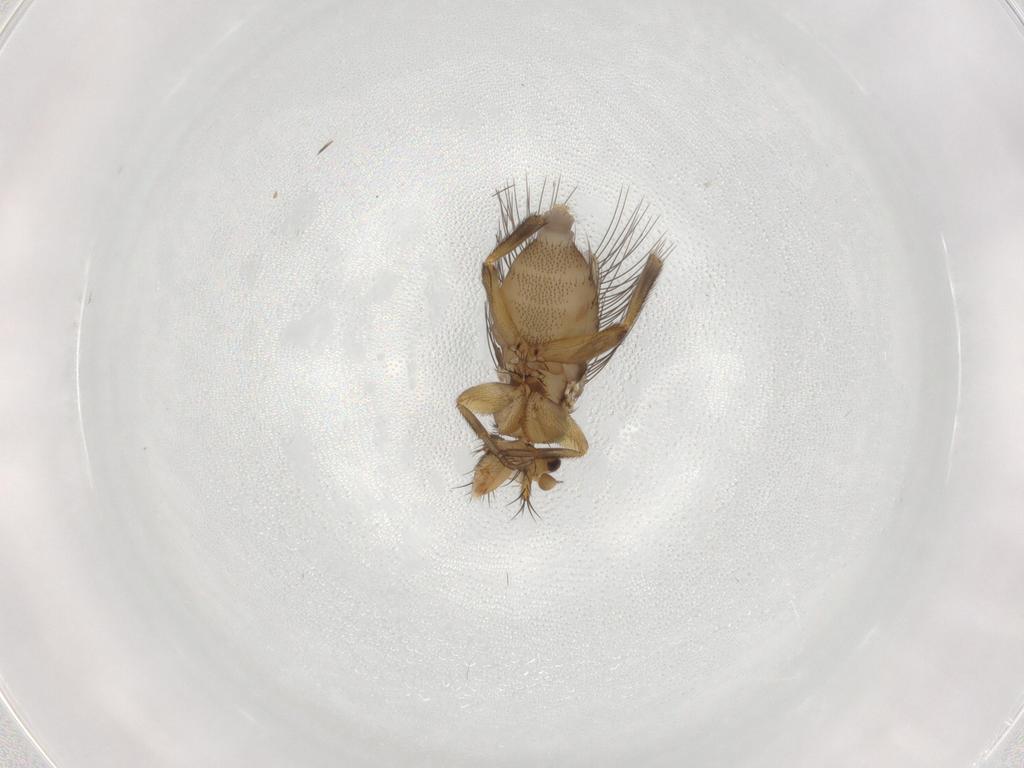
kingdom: Animalia
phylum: Arthropoda
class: Insecta
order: Diptera
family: Phoridae
